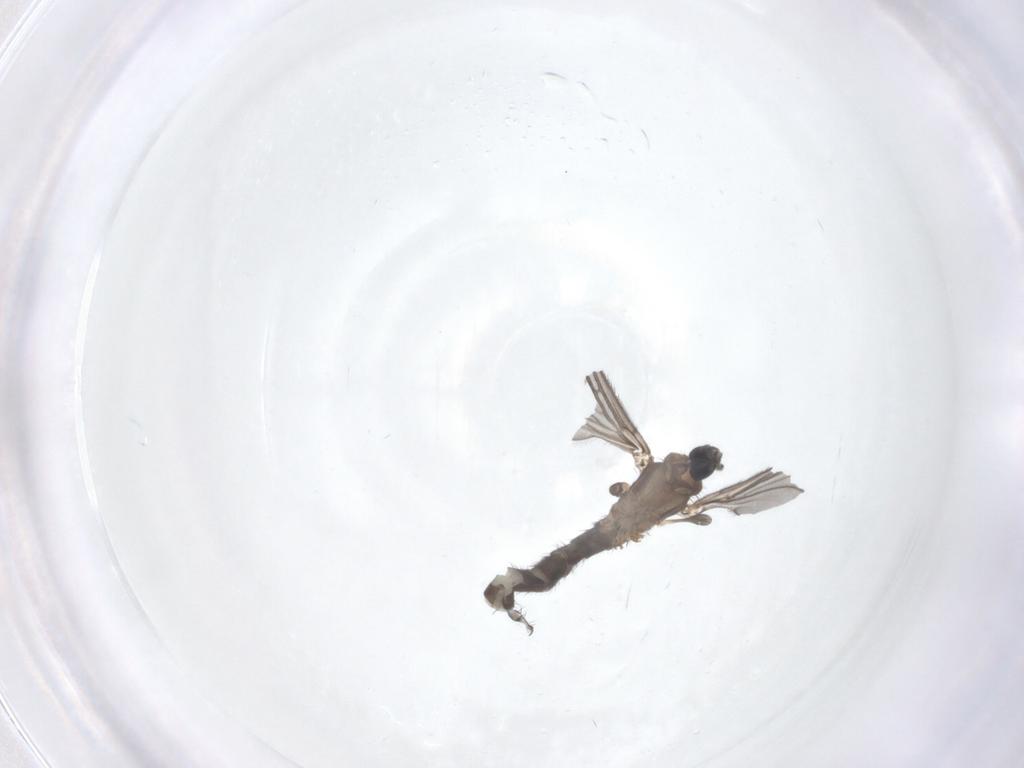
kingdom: Animalia
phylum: Arthropoda
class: Insecta
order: Diptera
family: Sciaridae
